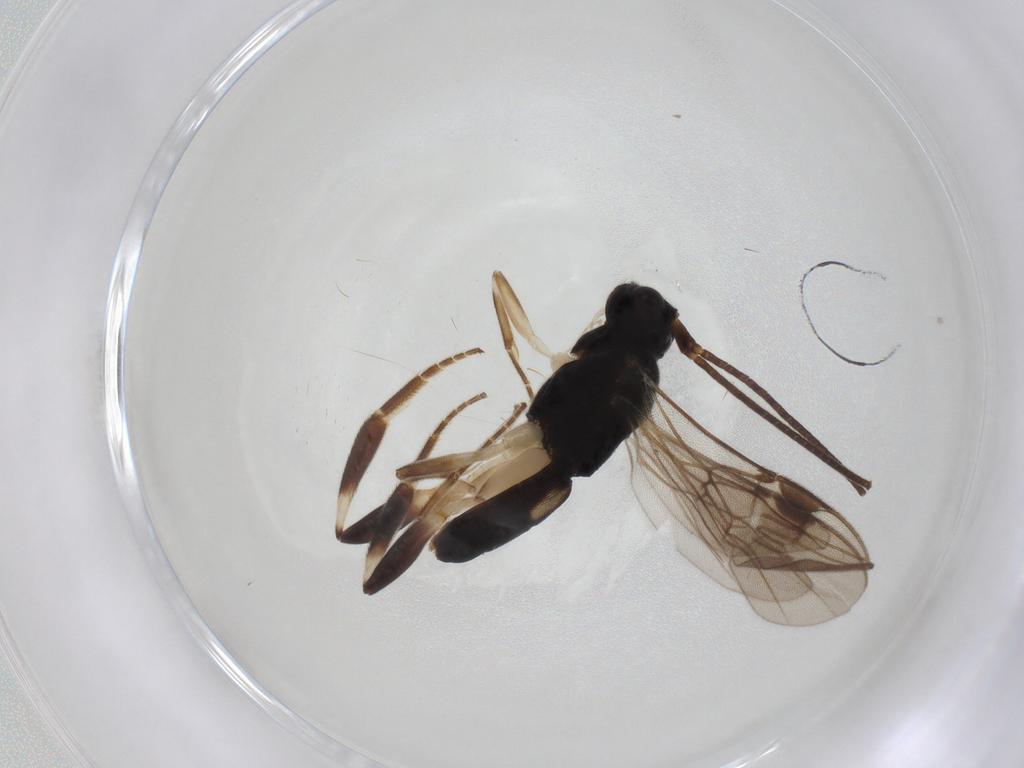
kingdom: Animalia
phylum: Arthropoda
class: Insecta
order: Hymenoptera
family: Braconidae
